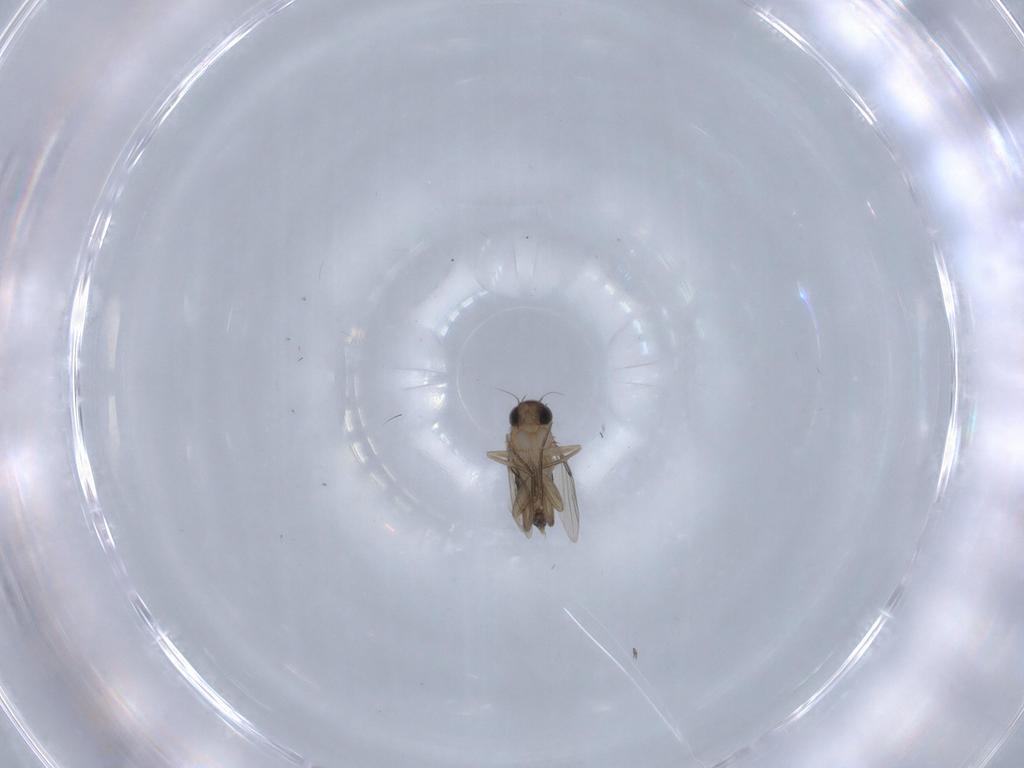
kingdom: Animalia
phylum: Arthropoda
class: Insecta
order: Diptera
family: Phoridae
